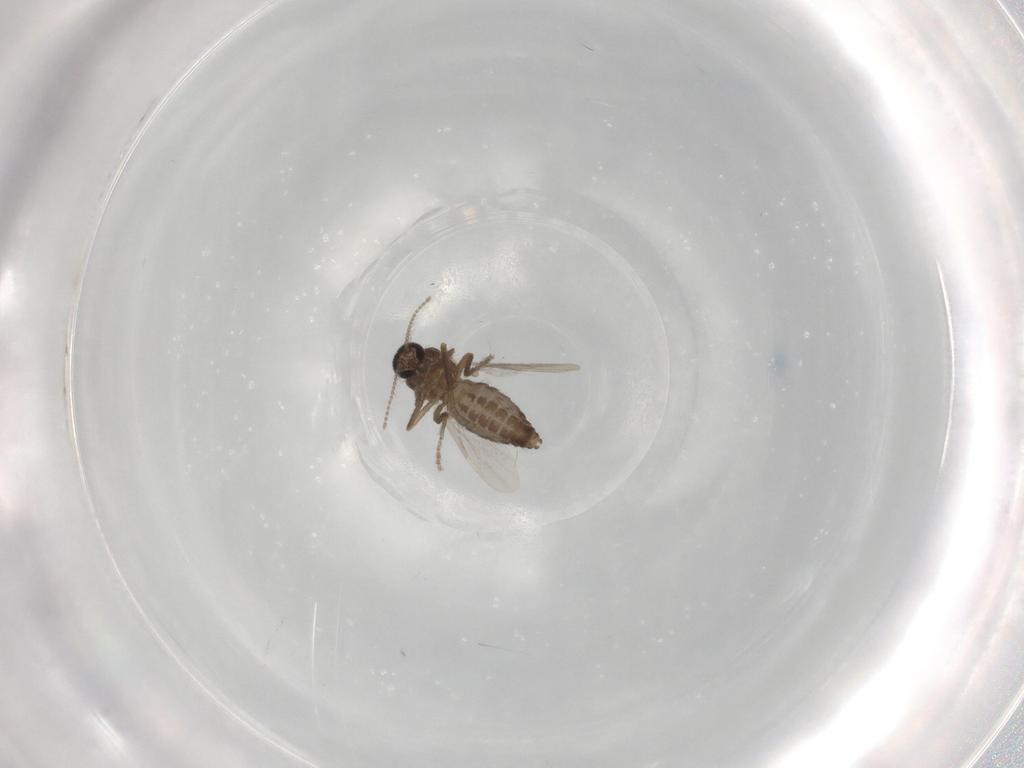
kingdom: Animalia
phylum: Arthropoda
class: Insecta
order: Diptera
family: Ceratopogonidae
